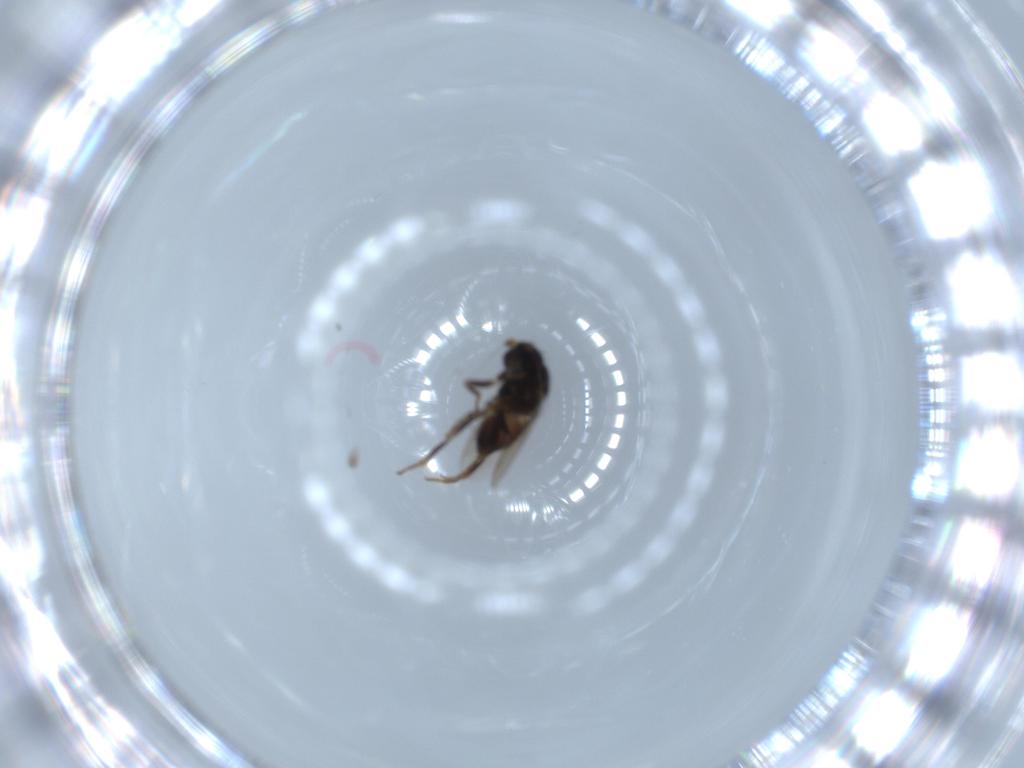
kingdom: Animalia
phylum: Arthropoda
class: Insecta
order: Diptera
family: Sphaeroceridae
